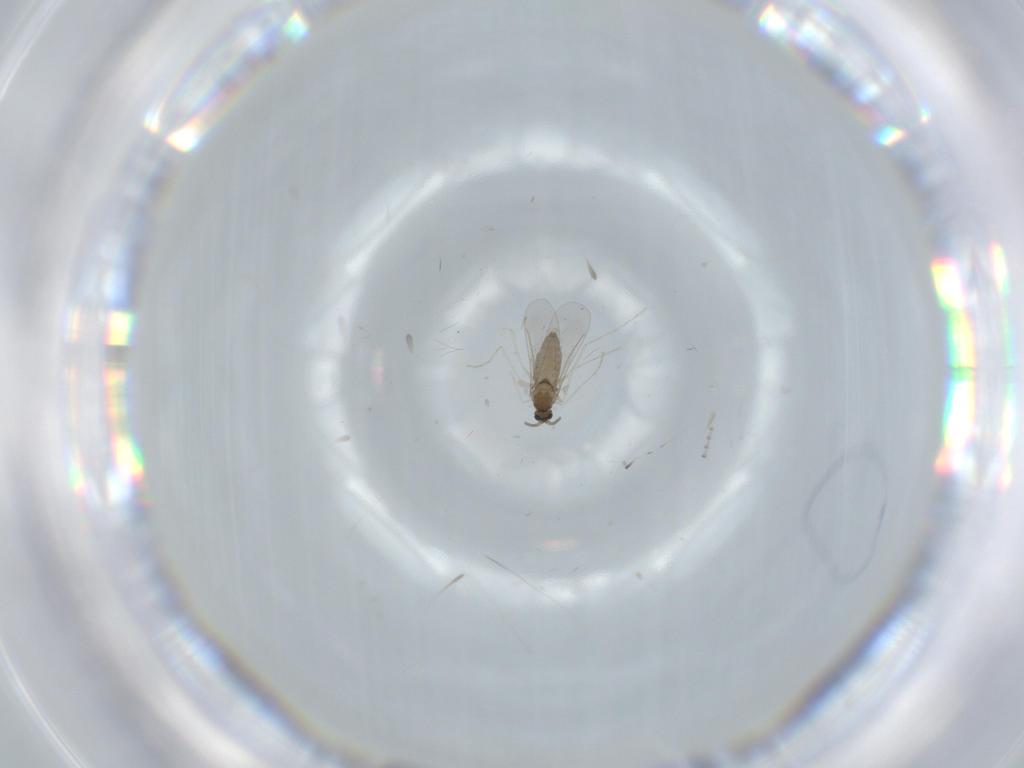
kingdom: Animalia
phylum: Arthropoda
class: Insecta
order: Diptera
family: Cecidomyiidae
